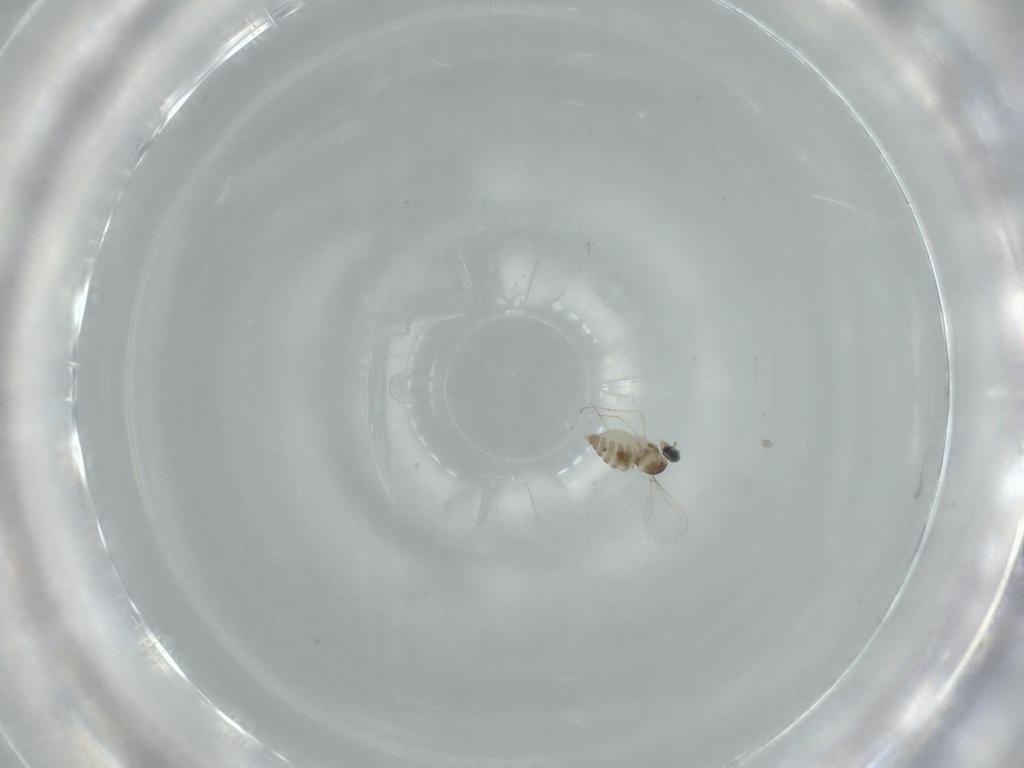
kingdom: Animalia
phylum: Arthropoda
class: Insecta
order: Diptera
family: Cecidomyiidae
